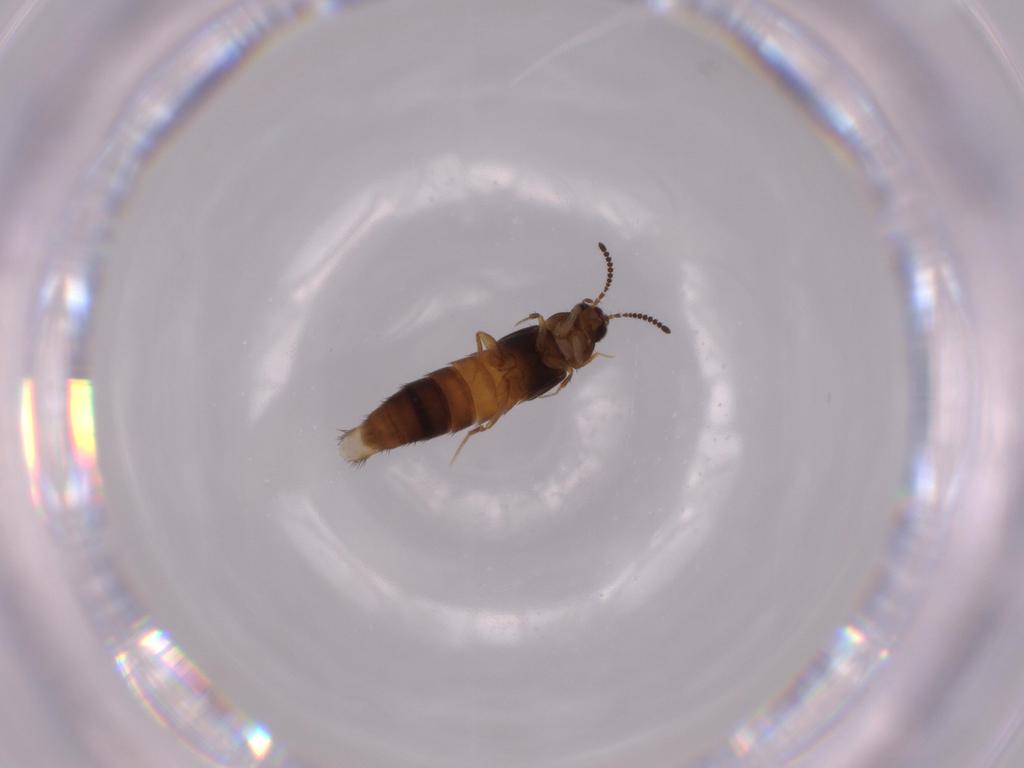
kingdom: Animalia
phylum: Arthropoda
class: Insecta
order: Coleoptera
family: Staphylinidae
